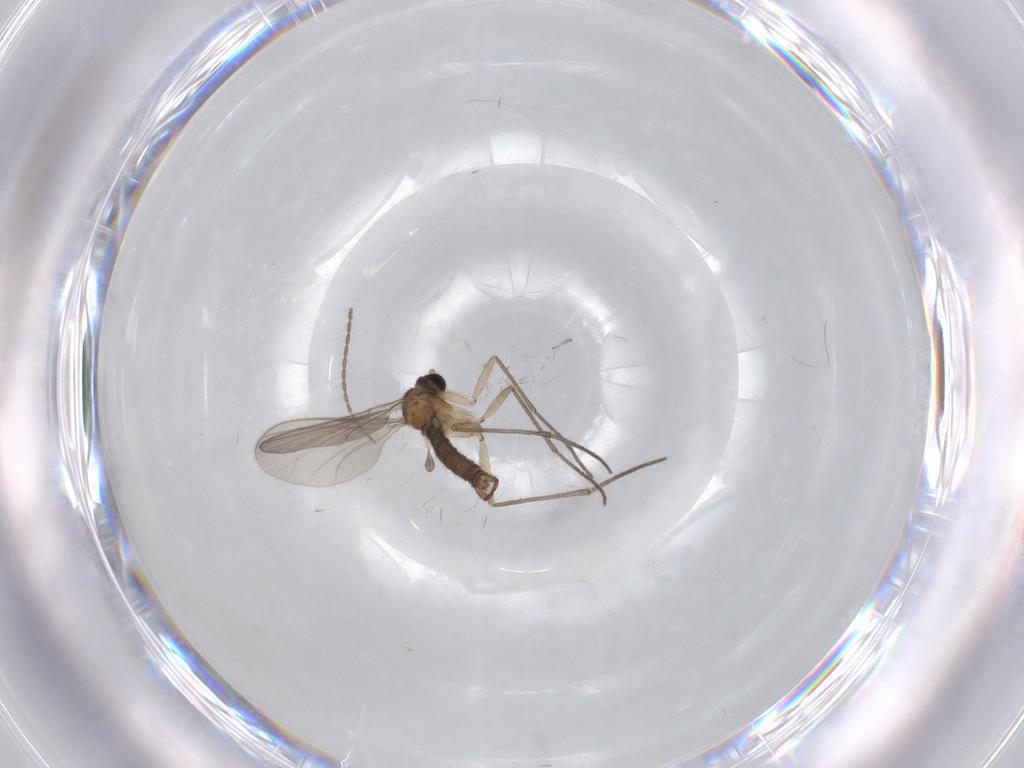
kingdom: Animalia
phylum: Arthropoda
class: Insecta
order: Diptera
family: Sciaridae
